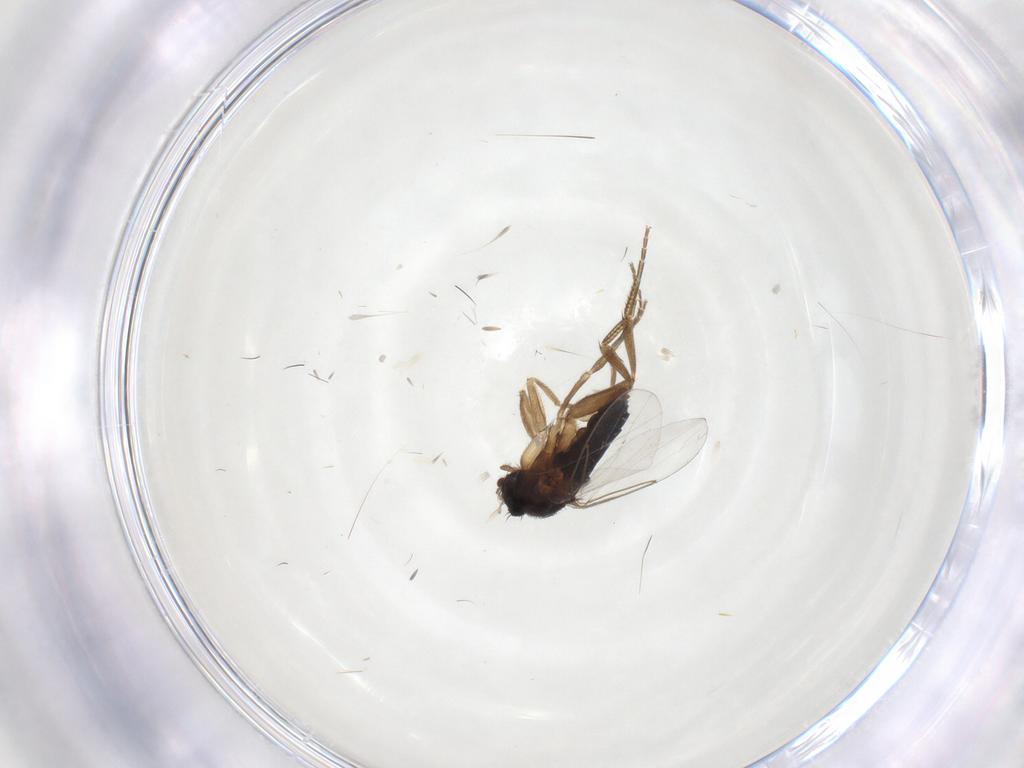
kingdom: Animalia
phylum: Arthropoda
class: Insecta
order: Diptera
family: Phoridae
